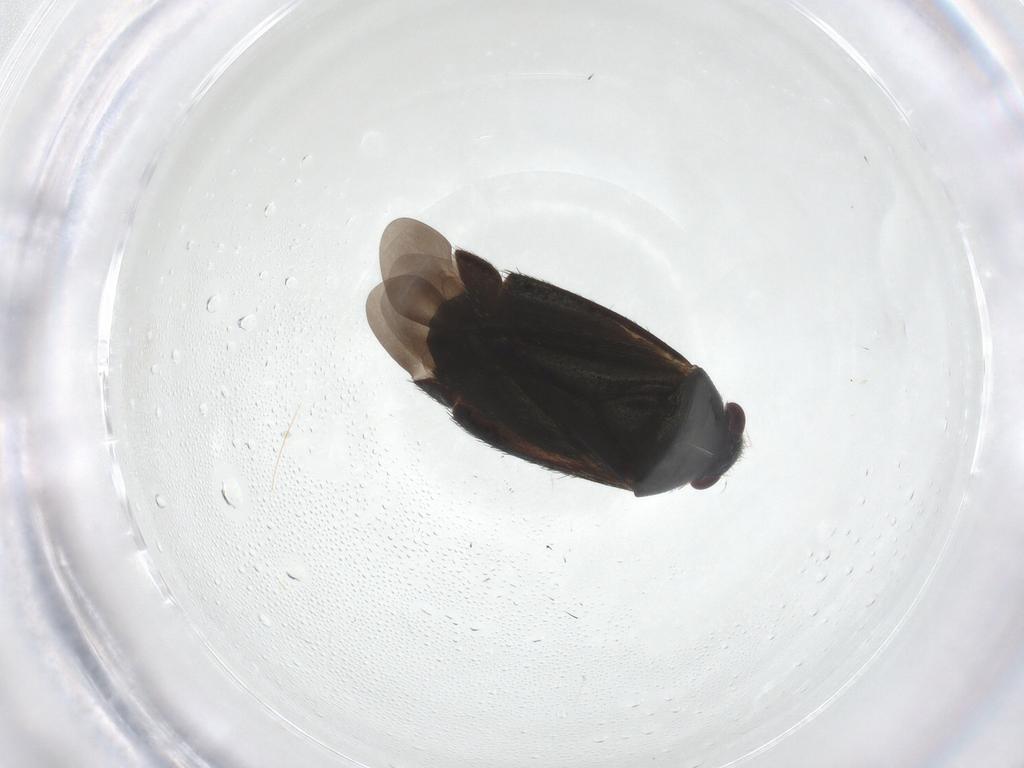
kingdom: Animalia
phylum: Arthropoda
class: Insecta
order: Hemiptera
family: Miridae
